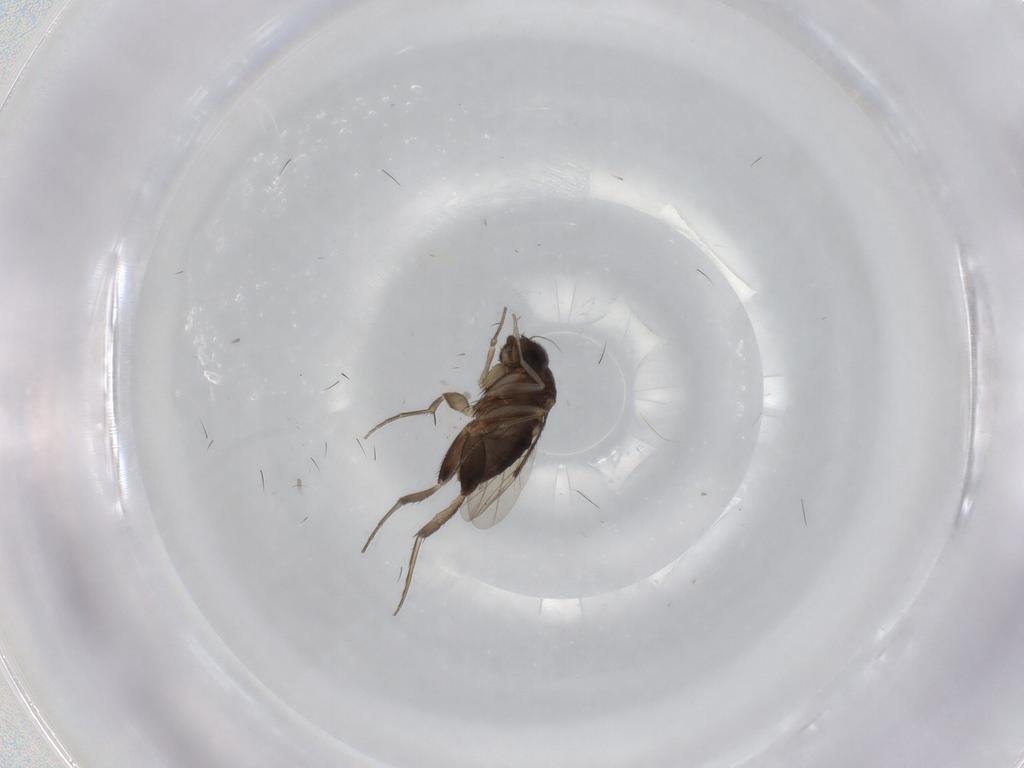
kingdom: Animalia
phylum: Arthropoda
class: Insecta
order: Diptera
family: Phoridae
